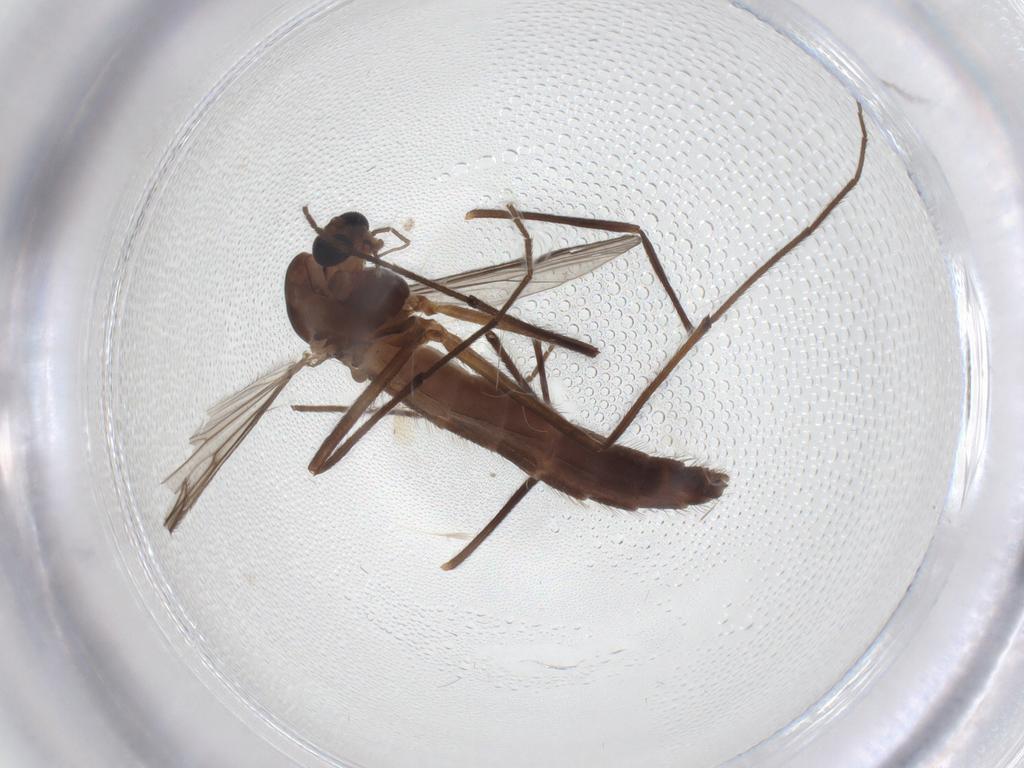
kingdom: Animalia
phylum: Arthropoda
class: Insecta
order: Diptera
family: Chironomidae
